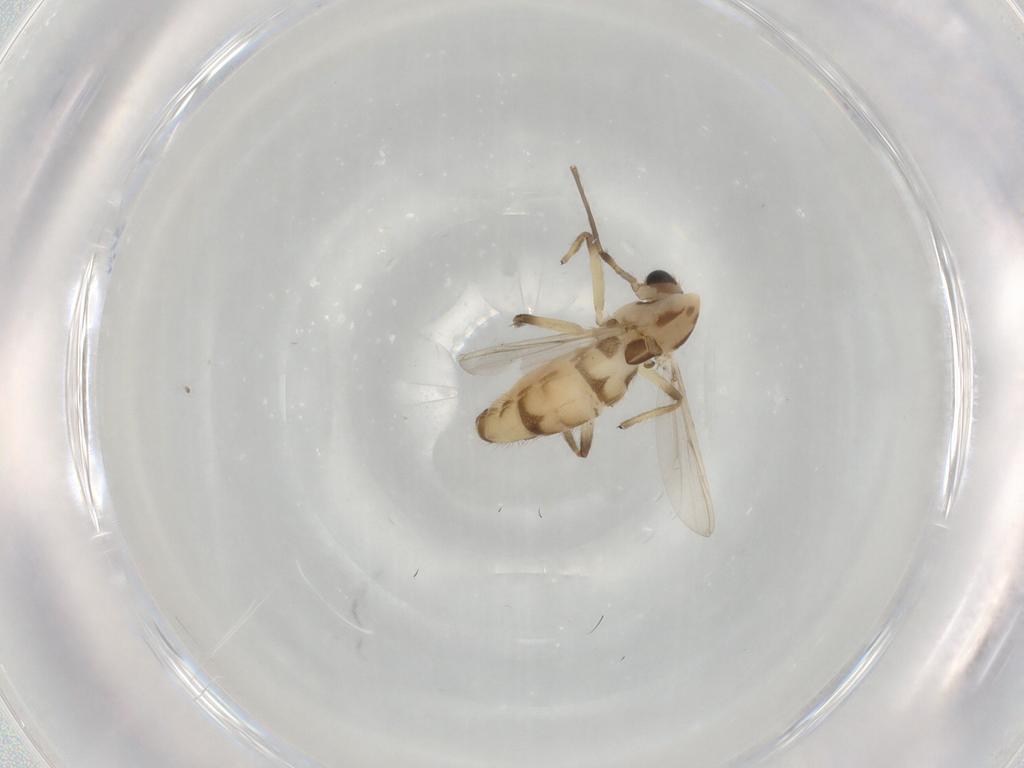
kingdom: Animalia
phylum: Arthropoda
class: Insecta
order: Diptera
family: Chironomidae
